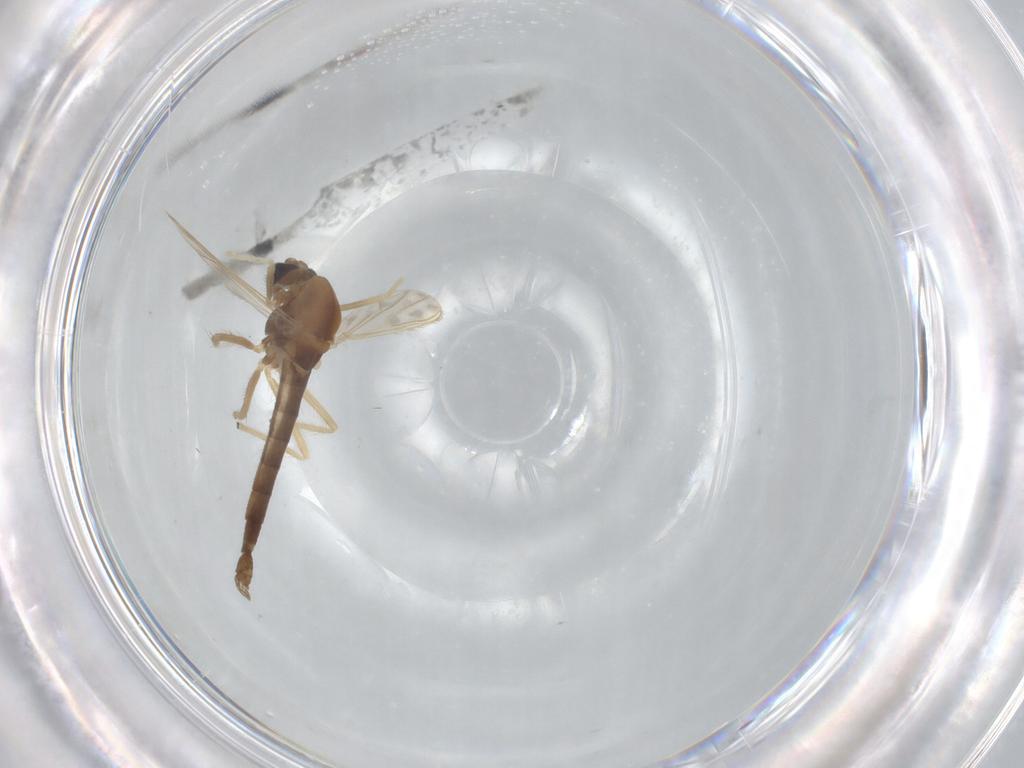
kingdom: Animalia
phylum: Arthropoda
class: Insecta
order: Diptera
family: Chironomidae
